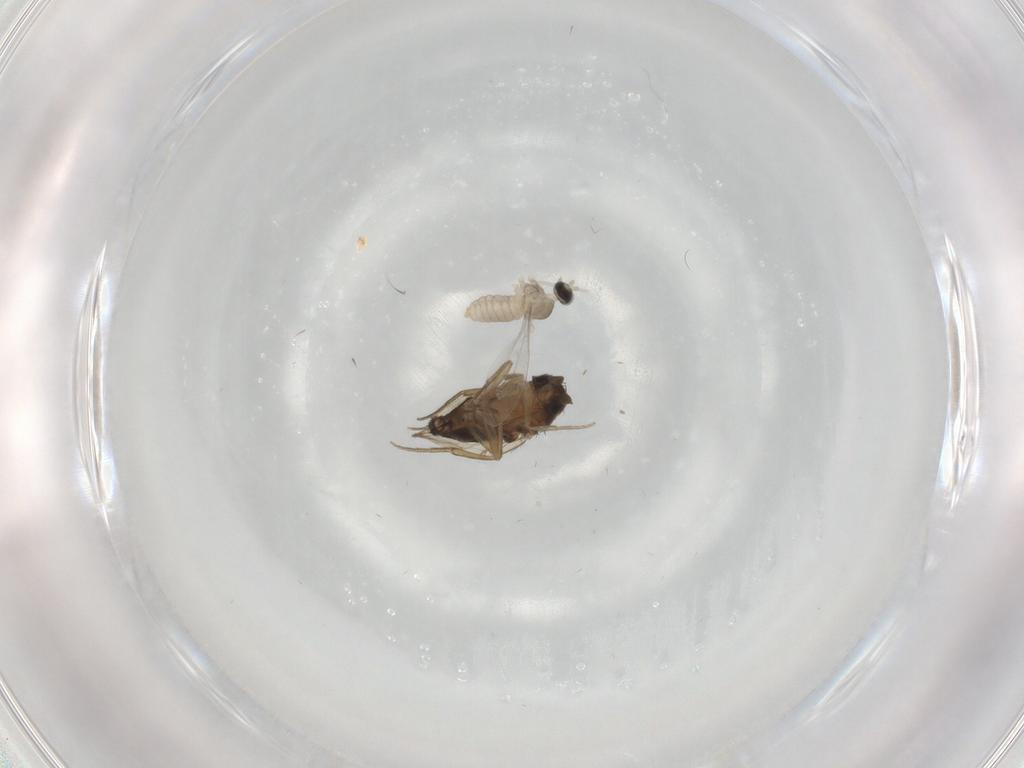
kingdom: Animalia
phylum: Arthropoda
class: Insecta
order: Diptera
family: Cecidomyiidae
